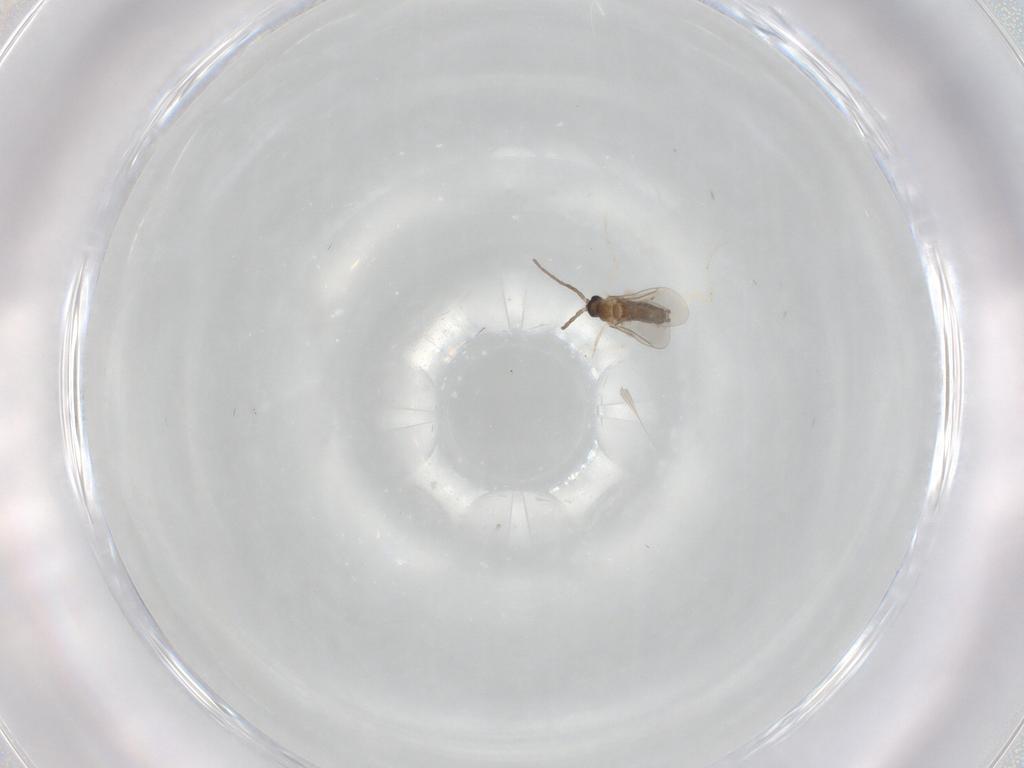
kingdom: Animalia
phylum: Arthropoda
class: Insecta
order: Diptera
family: Cecidomyiidae
